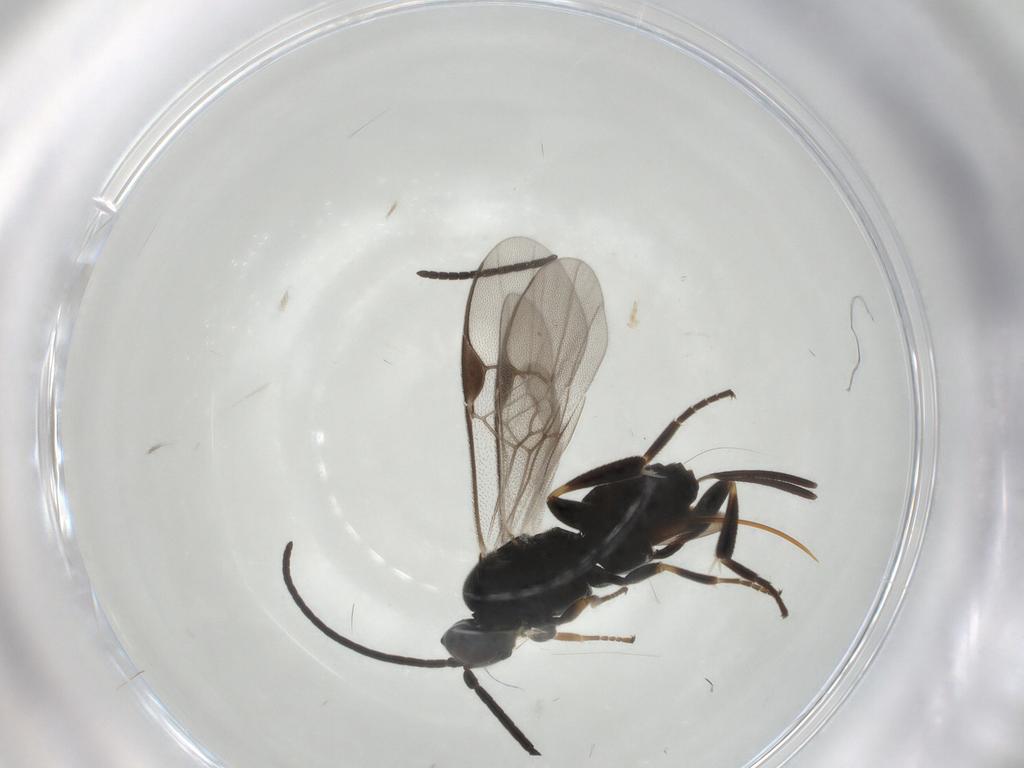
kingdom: Animalia
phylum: Arthropoda
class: Insecta
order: Hymenoptera
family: Braconidae
